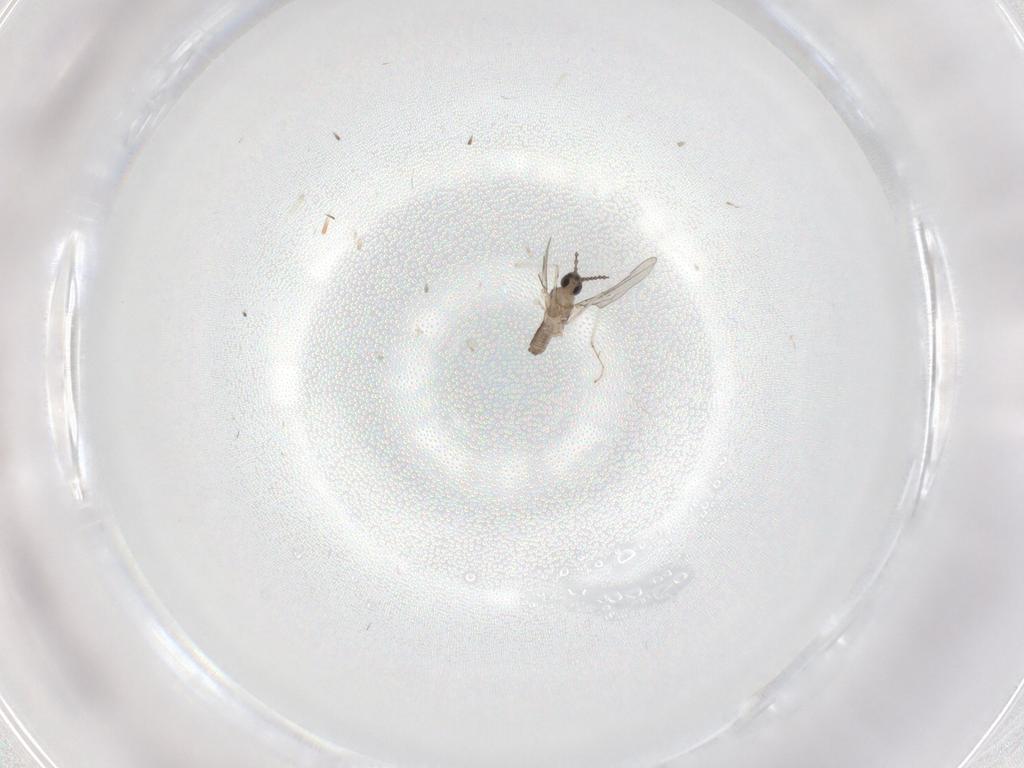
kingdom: Animalia
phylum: Arthropoda
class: Insecta
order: Diptera
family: Cecidomyiidae
